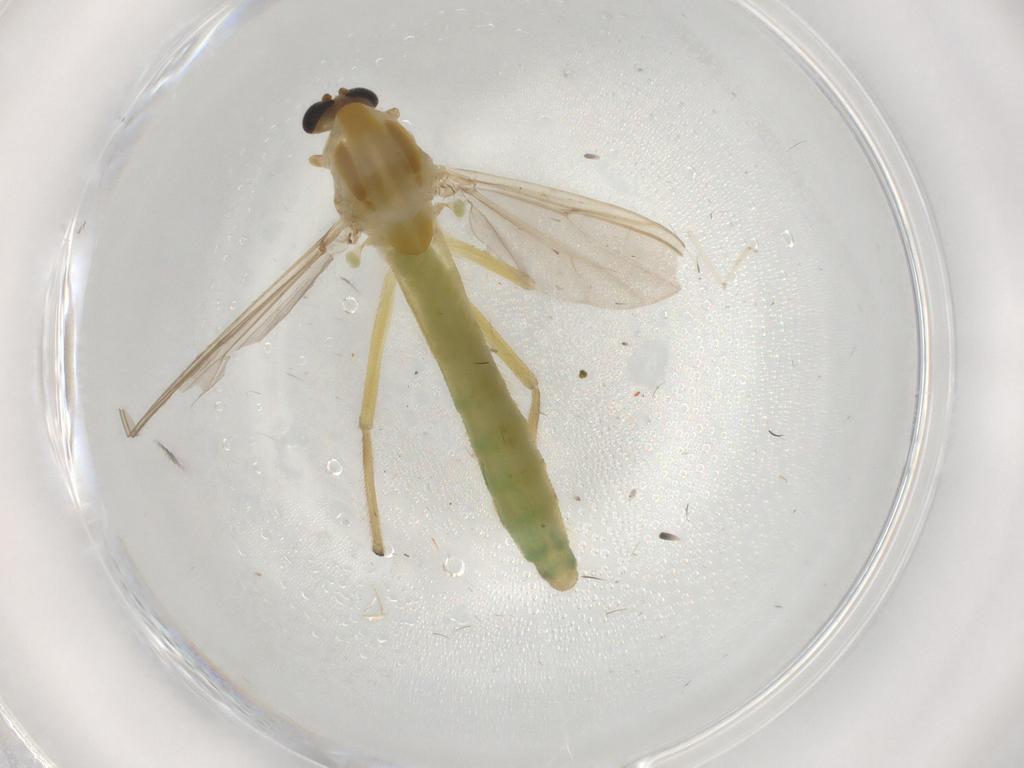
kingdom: Animalia
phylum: Arthropoda
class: Insecta
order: Diptera
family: Chironomidae
